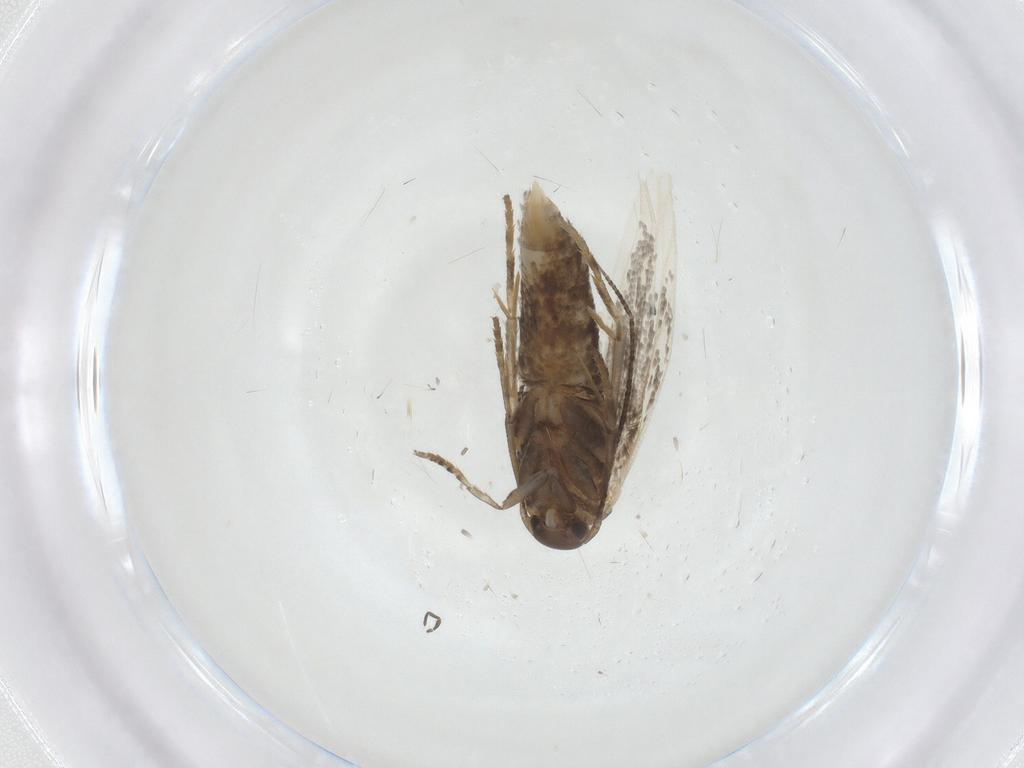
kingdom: Animalia
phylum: Arthropoda
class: Insecta
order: Lepidoptera
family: Elachistidae
